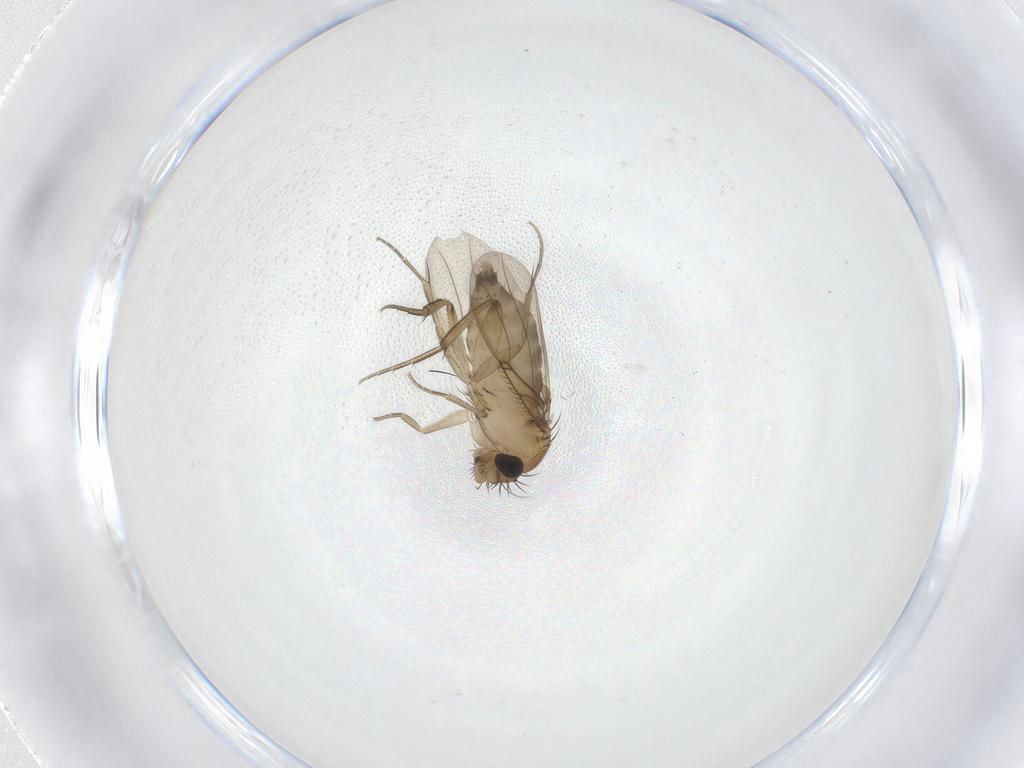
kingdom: Animalia
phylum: Arthropoda
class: Insecta
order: Diptera
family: Phoridae
